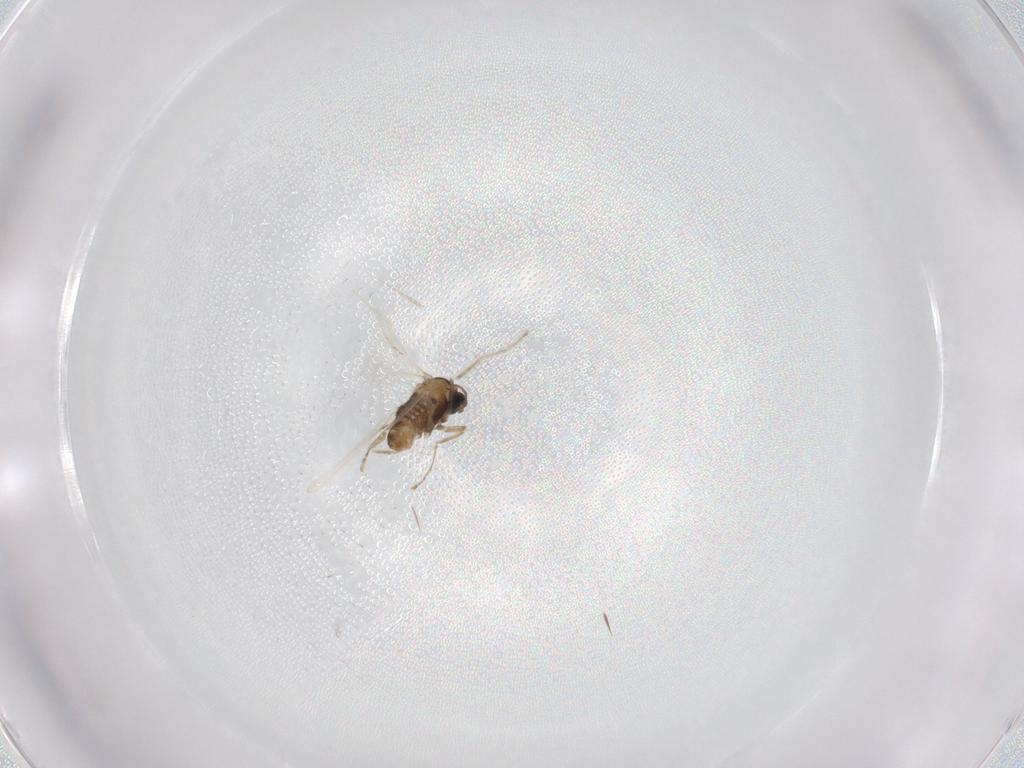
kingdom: Animalia
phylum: Arthropoda
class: Insecta
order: Diptera
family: Cecidomyiidae
